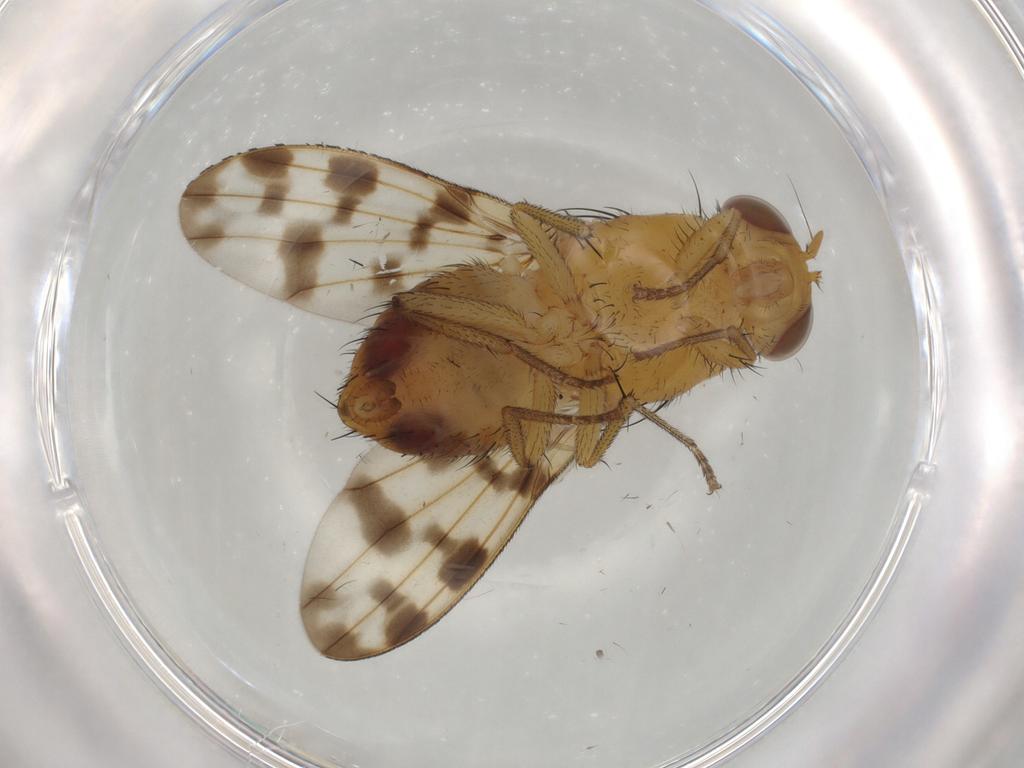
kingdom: Animalia
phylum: Arthropoda
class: Insecta
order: Diptera
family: Cecidomyiidae
